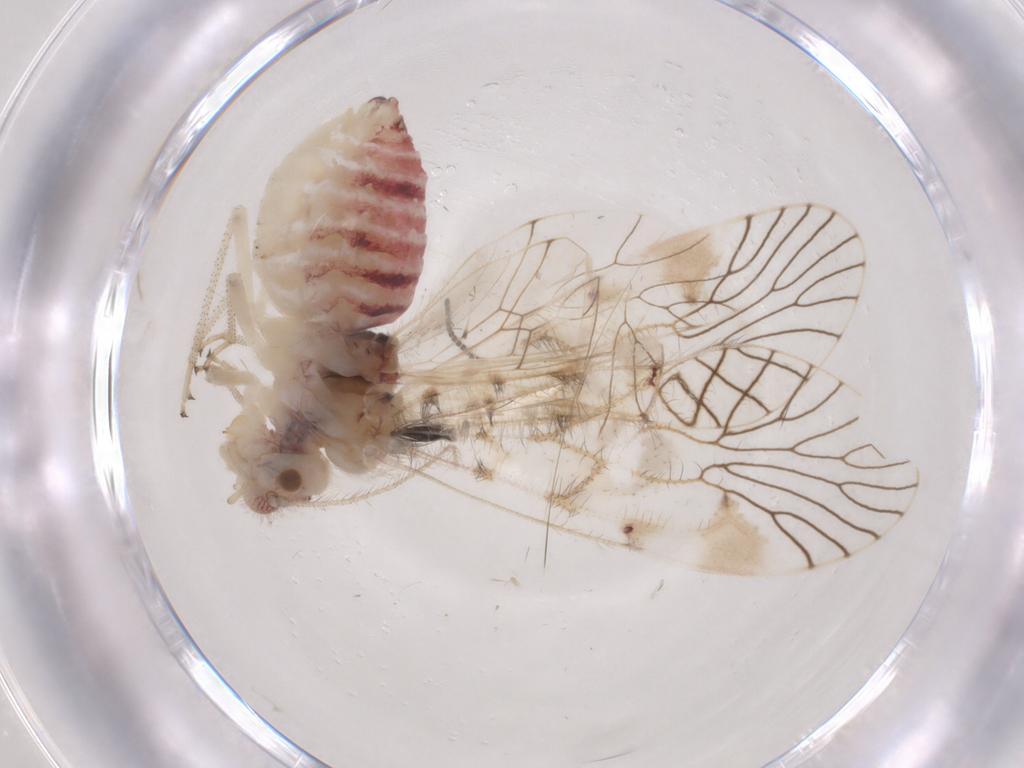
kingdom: Animalia
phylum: Arthropoda
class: Insecta
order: Psocodea
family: Amphipsocidae
